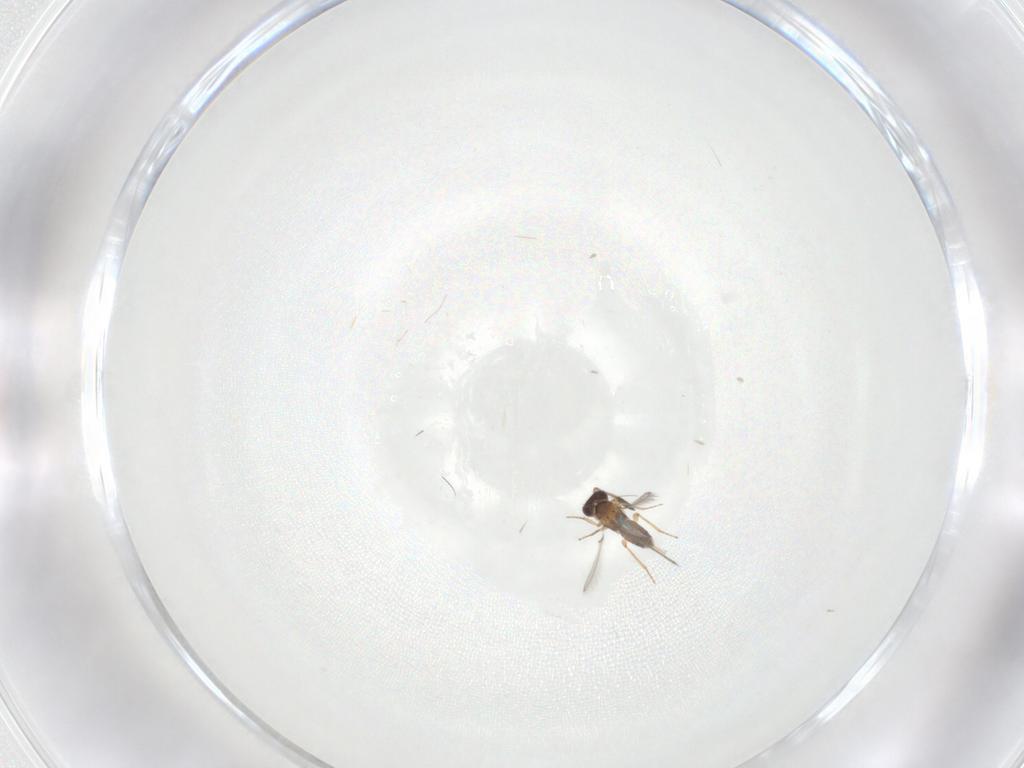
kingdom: Animalia
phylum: Arthropoda
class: Insecta
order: Hymenoptera
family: Mymaridae
